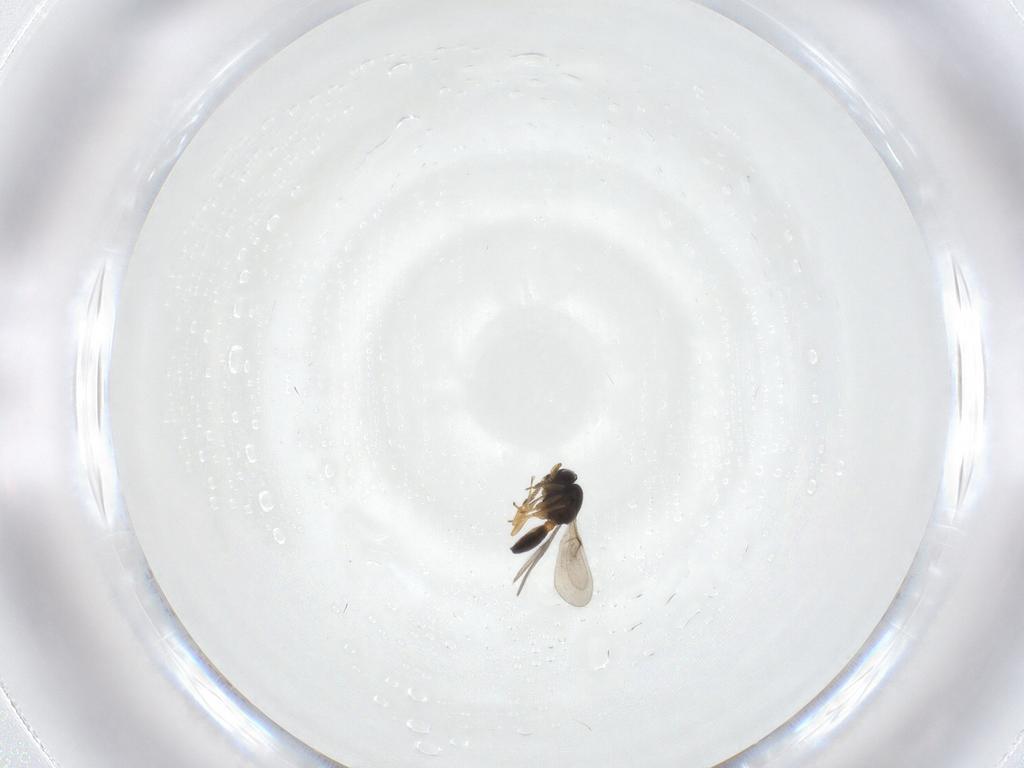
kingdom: Animalia
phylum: Arthropoda
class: Insecta
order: Hymenoptera
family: Scelionidae
